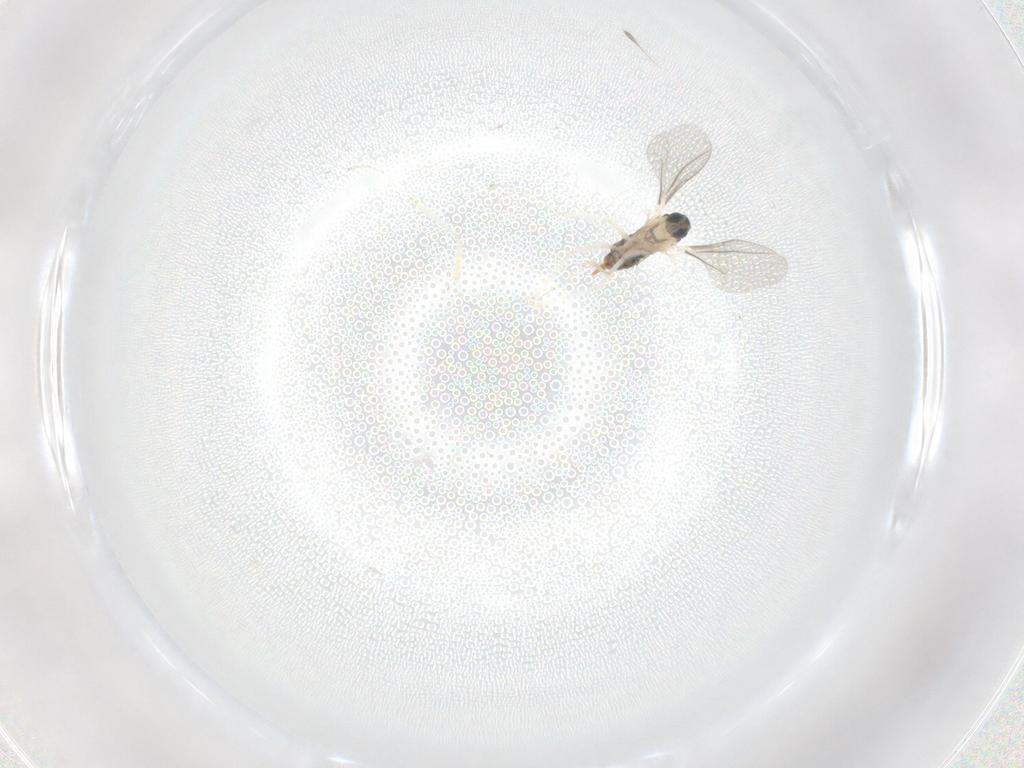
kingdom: Animalia
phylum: Arthropoda
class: Insecta
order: Diptera
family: Cecidomyiidae
